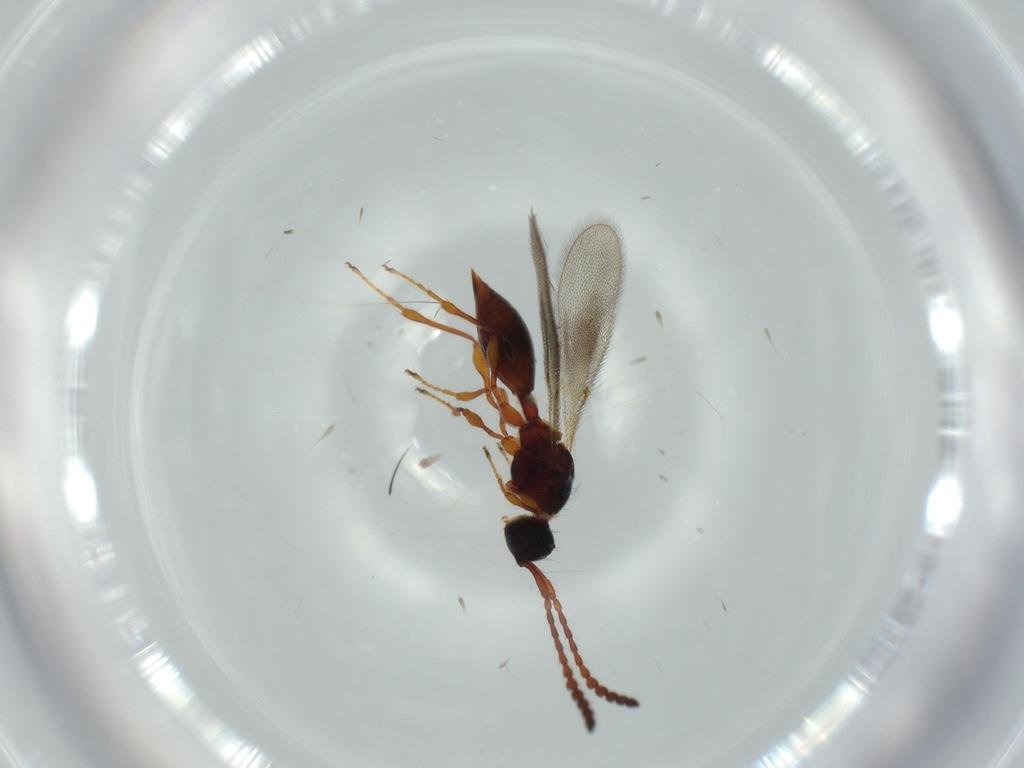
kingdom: Animalia
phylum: Arthropoda
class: Insecta
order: Hymenoptera
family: Diapriidae
